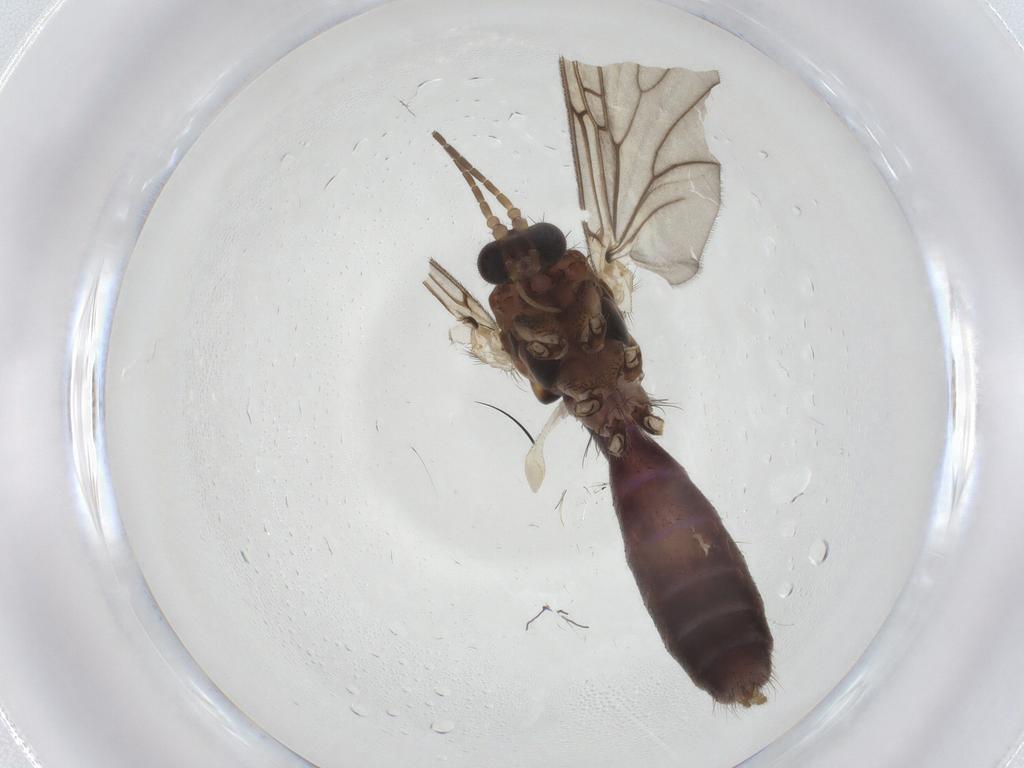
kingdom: Animalia
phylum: Arthropoda
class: Insecta
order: Diptera
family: Mycetophilidae
